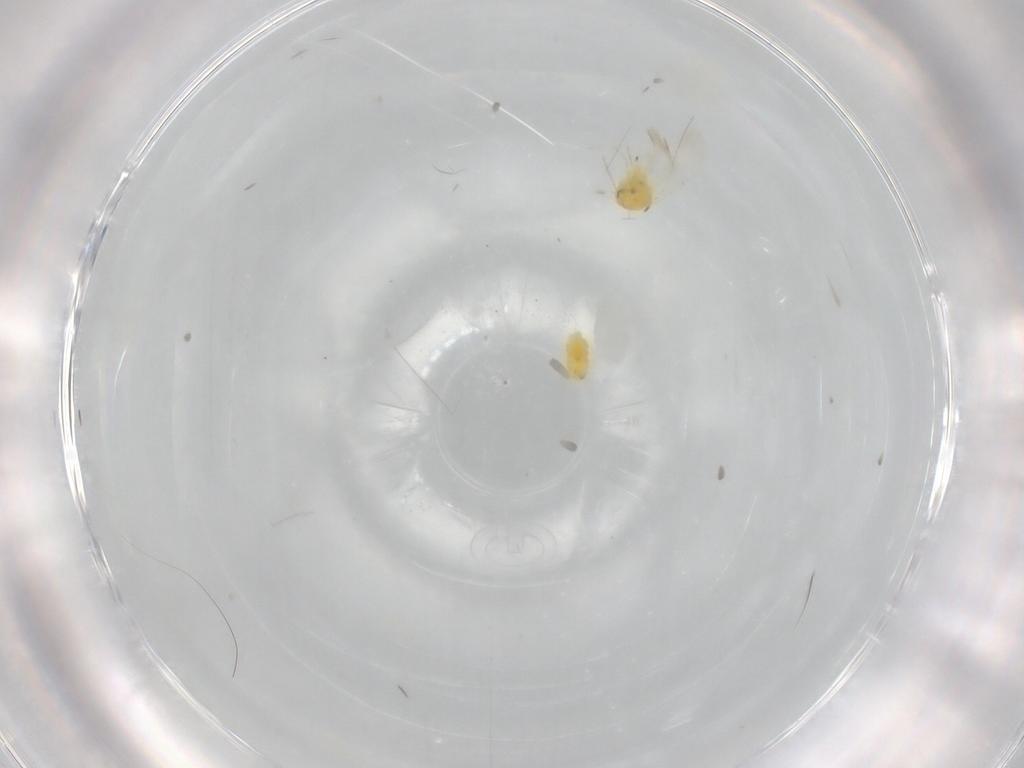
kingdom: Animalia
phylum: Arthropoda
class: Insecta
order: Hemiptera
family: Aleyrodidae
